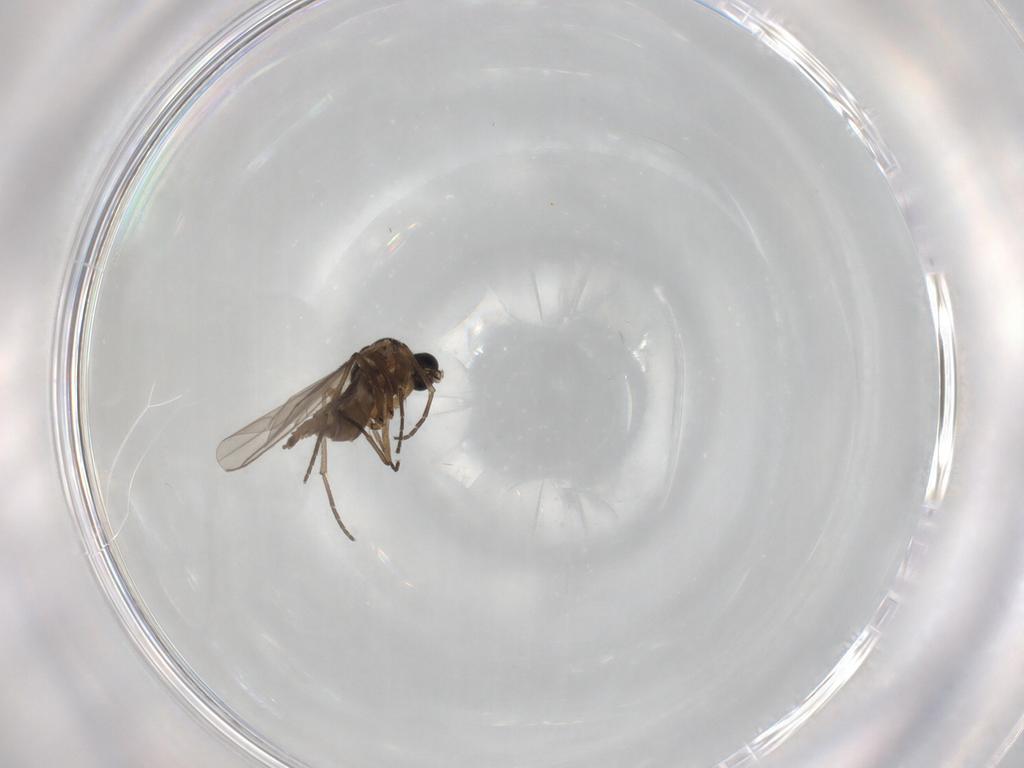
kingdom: Animalia
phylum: Arthropoda
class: Insecta
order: Diptera
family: Phoridae
